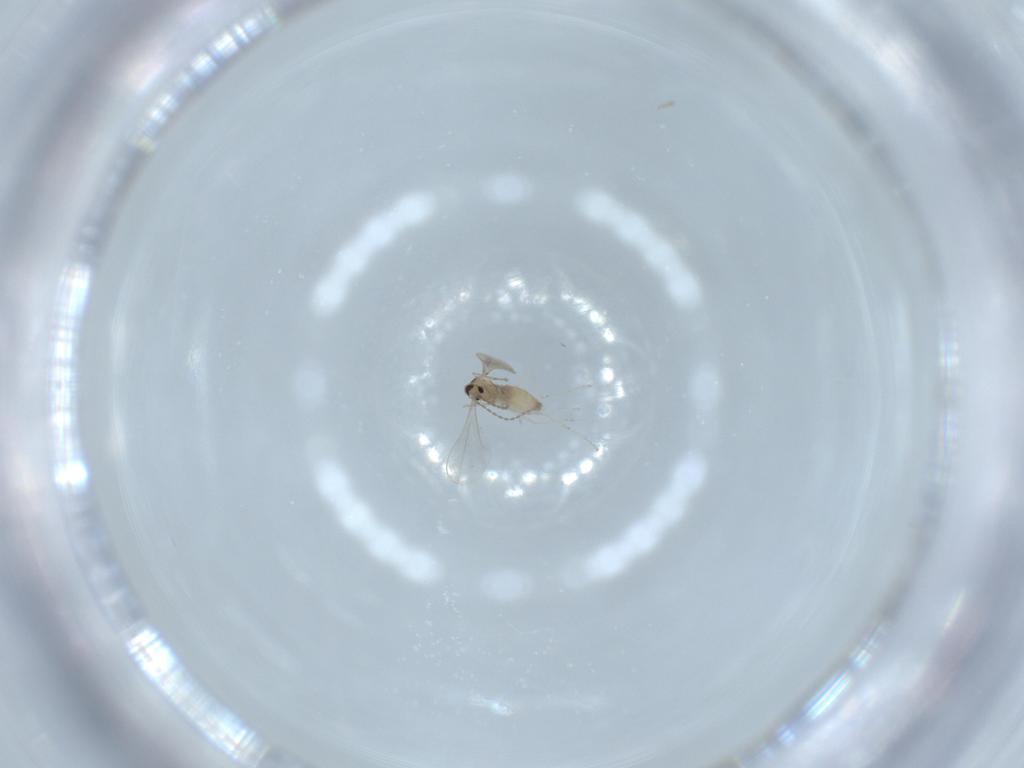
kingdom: Animalia
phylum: Arthropoda
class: Insecta
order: Diptera
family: Cecidomyiidae
